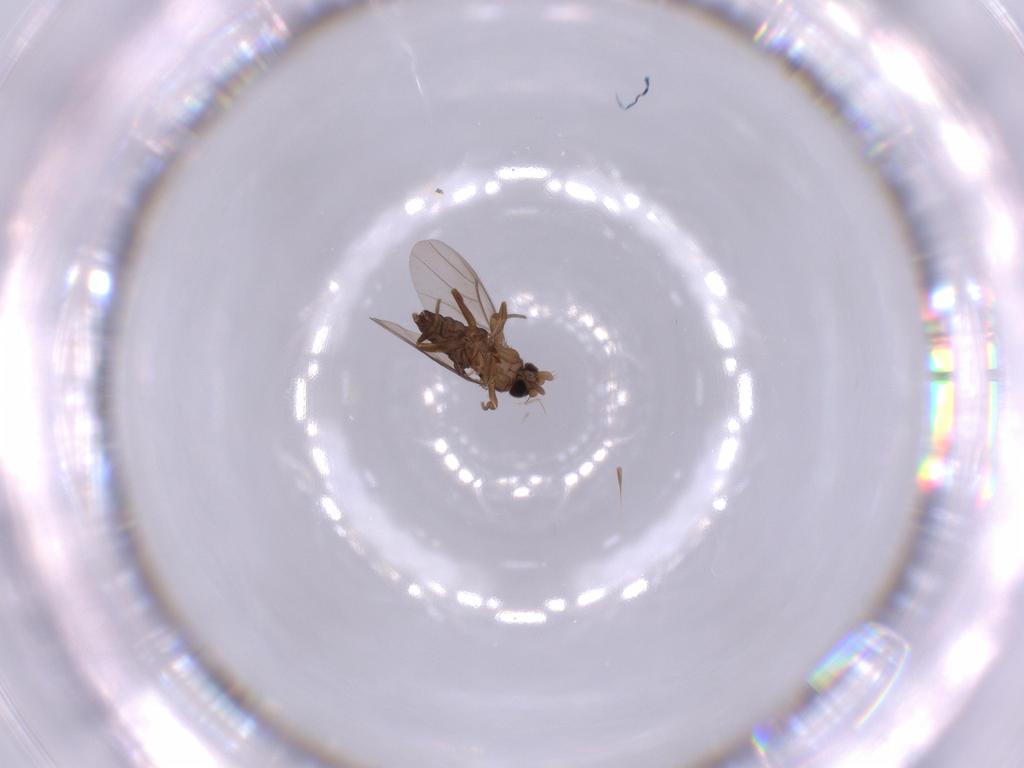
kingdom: Animalia
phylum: Arthropoda
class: Insecta
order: Diptera
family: Phoridae
